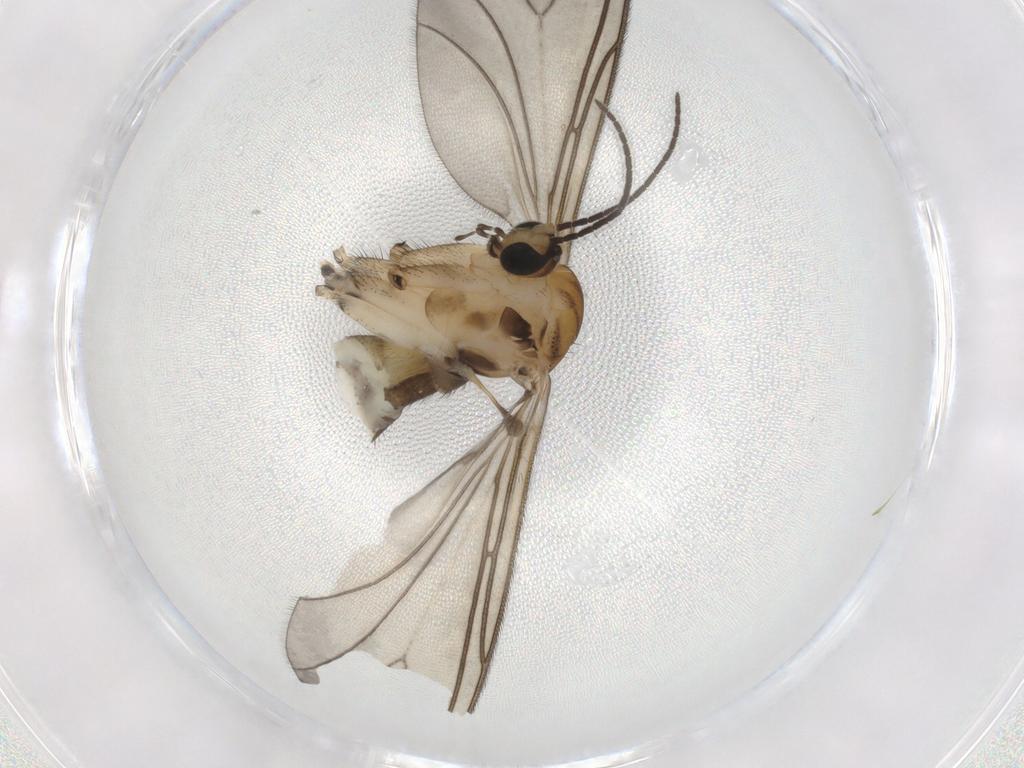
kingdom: Animalia
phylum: Arthropoda
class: Insecta
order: Diptera
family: Sciaridae
